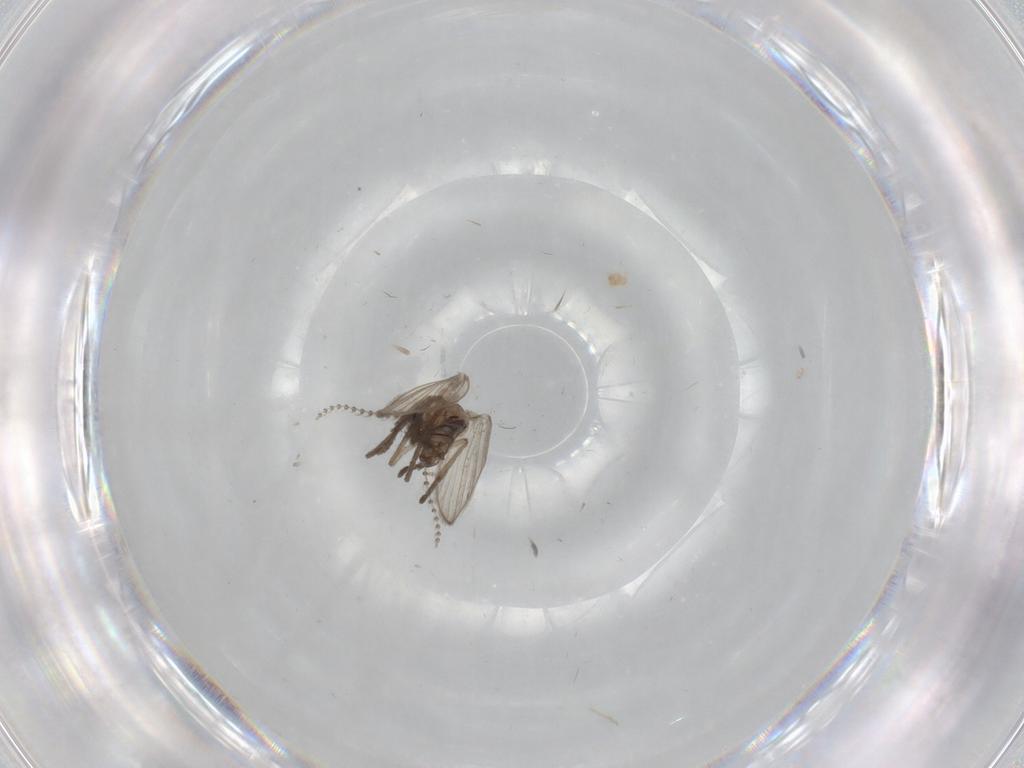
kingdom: Animalia
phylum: Arthropoda
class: Insecta
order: Diptera
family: Psychodidae
